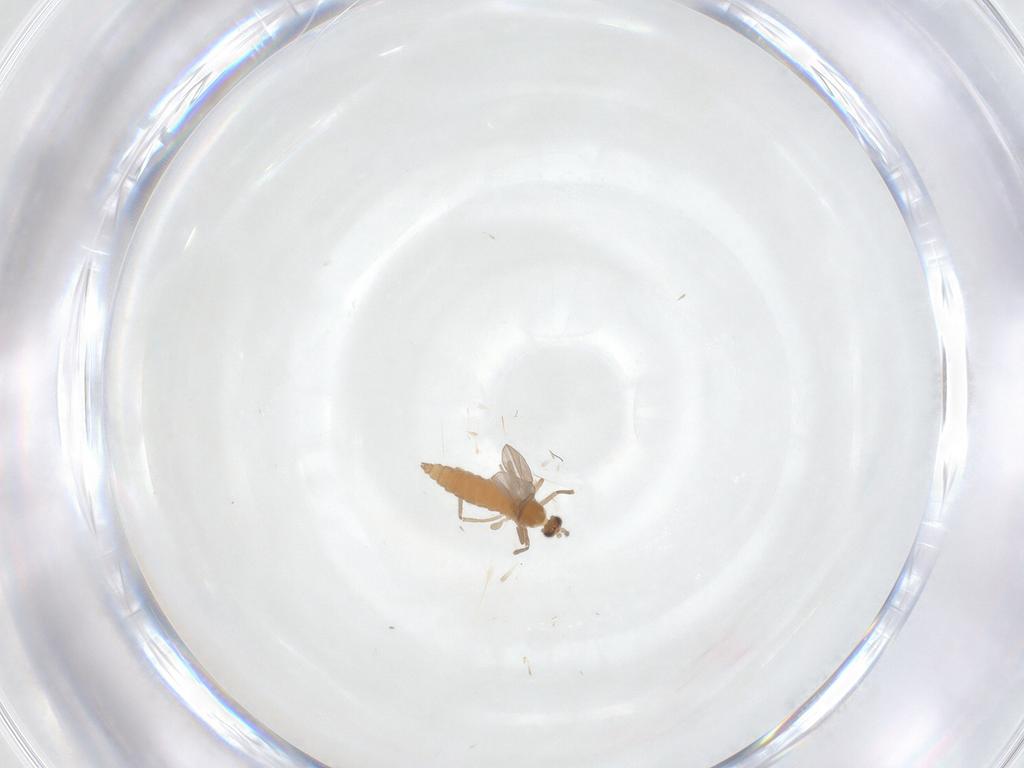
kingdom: Animalia
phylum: Arthropoda
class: Insecta
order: Diptera
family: Cecidomyiidae
